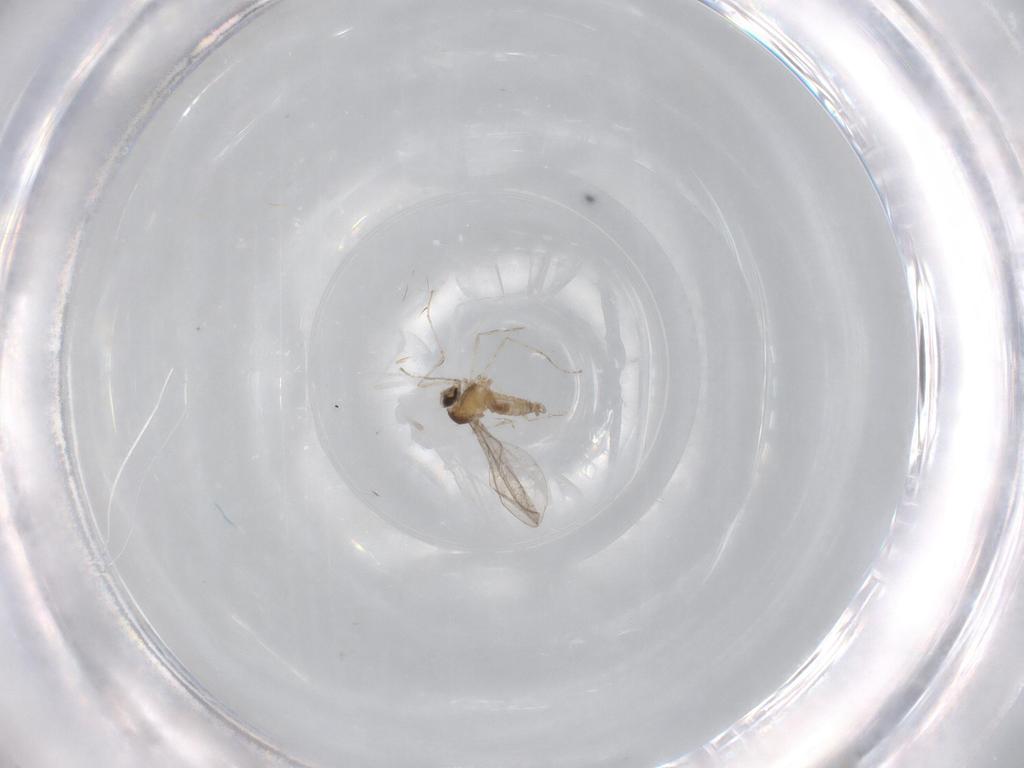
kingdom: Animalia
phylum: Arthropoda
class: Insecta
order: Diptera
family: Cecidomyiidae
